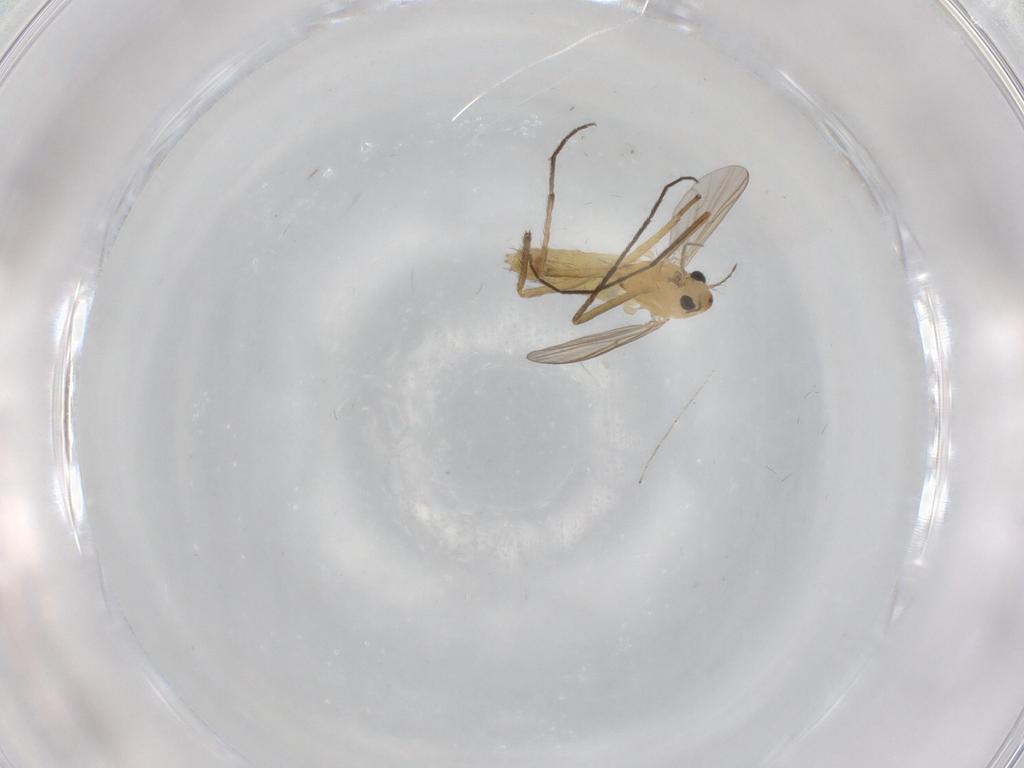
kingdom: Animalia
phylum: Arthropoda
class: Insecta
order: Diptera
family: Chironomidae
